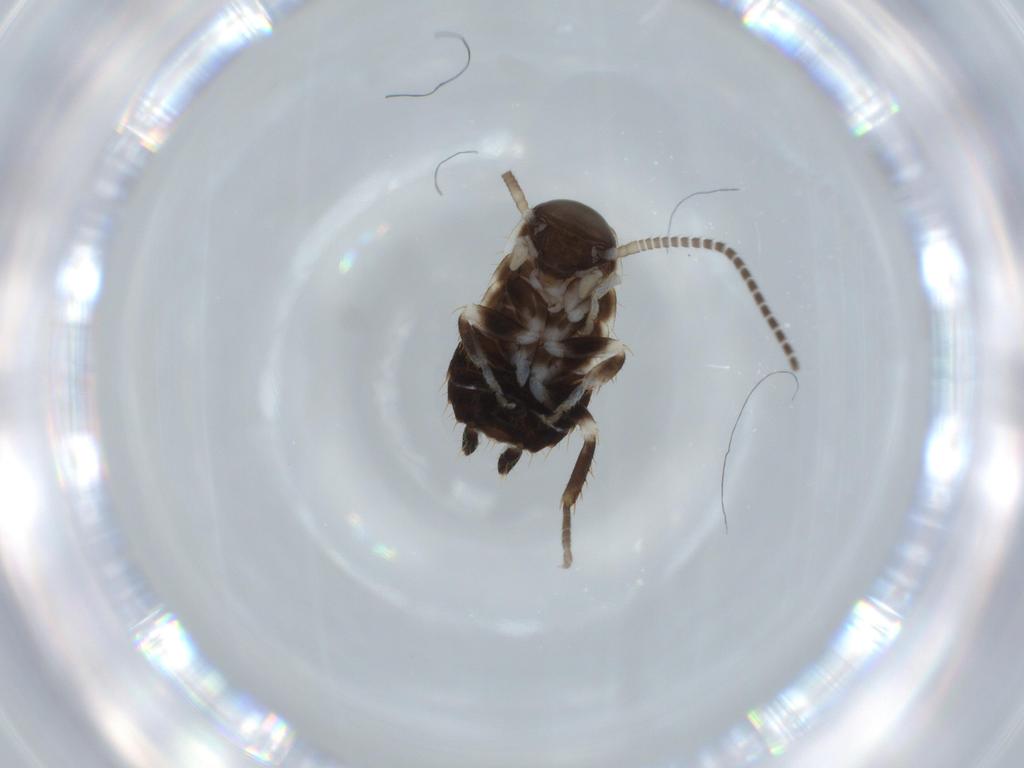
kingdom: Animalia
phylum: Arthropoda
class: Insecta
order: Blattodea
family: Ectobiidae
